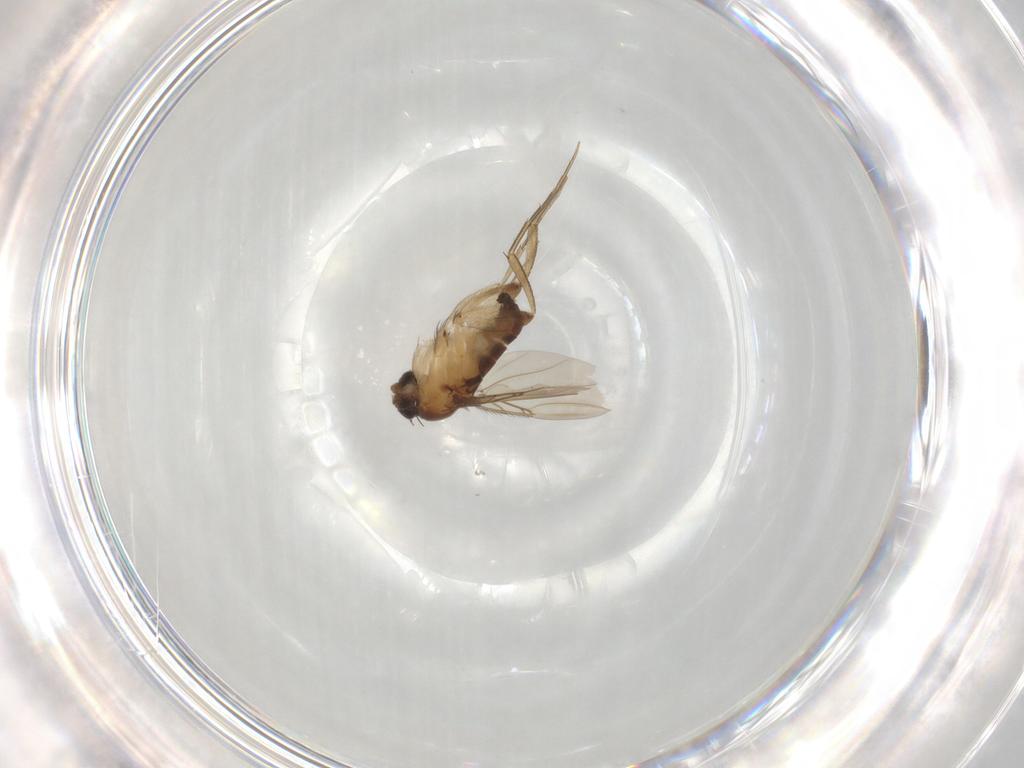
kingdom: Animalia
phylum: Arthropoda
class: Insecta
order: Diptera
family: Phoridae
